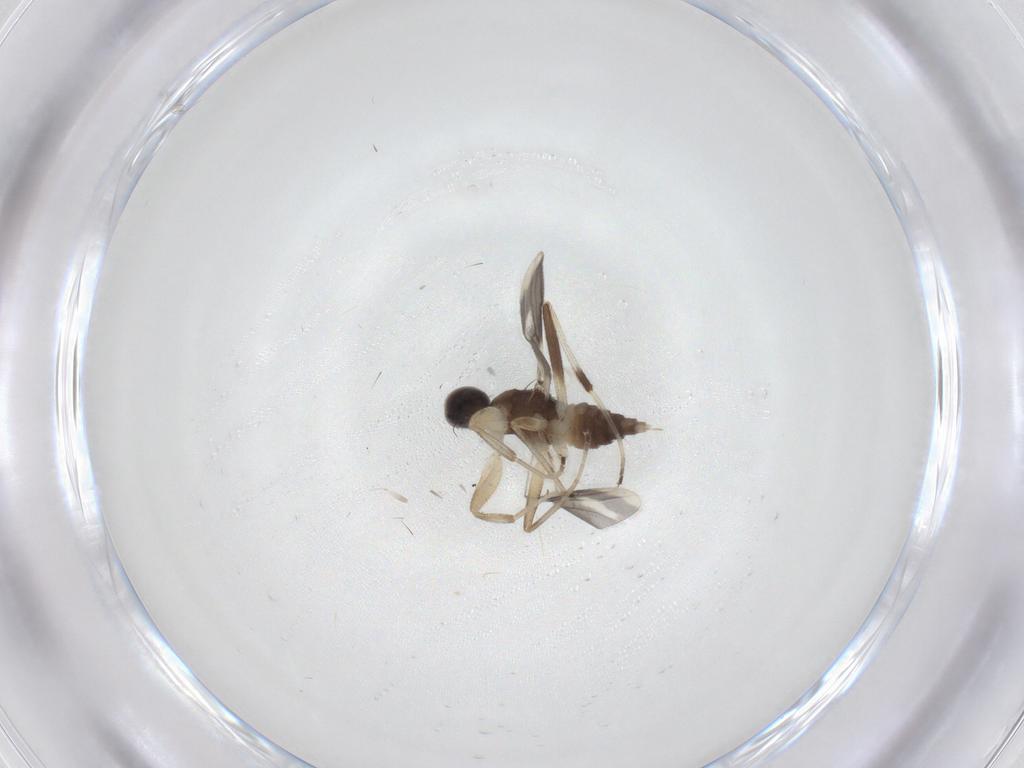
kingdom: Animalia
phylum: Arthropoda
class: Insecta
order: Diptera
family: Hybotidae
